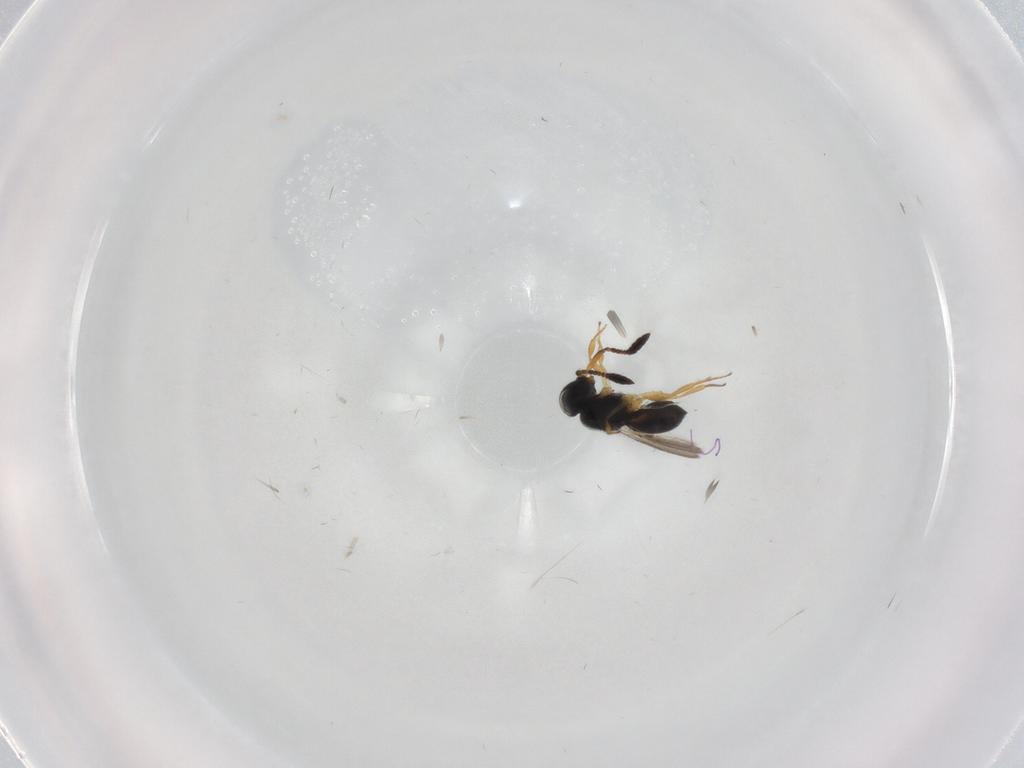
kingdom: Animalia
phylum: Arthropoda
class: Insecta
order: Hymenoptera
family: Scelionidae
